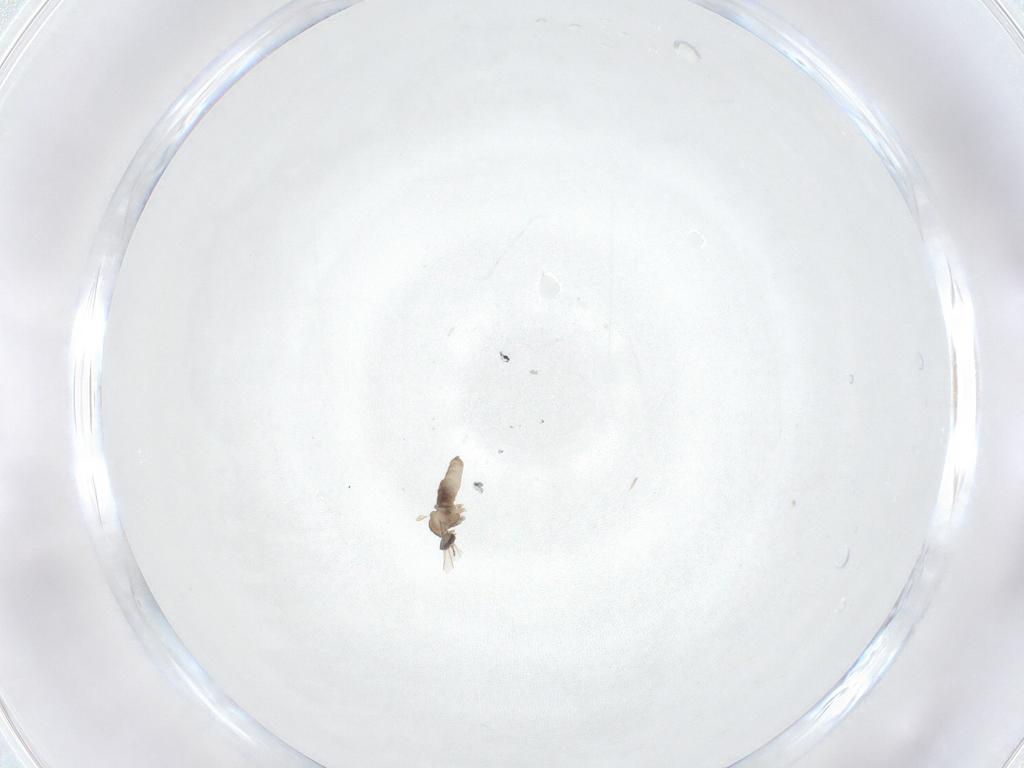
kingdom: Animalia
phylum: Arthropoda
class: Insecta
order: Diptera
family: Cecidomyiidae
